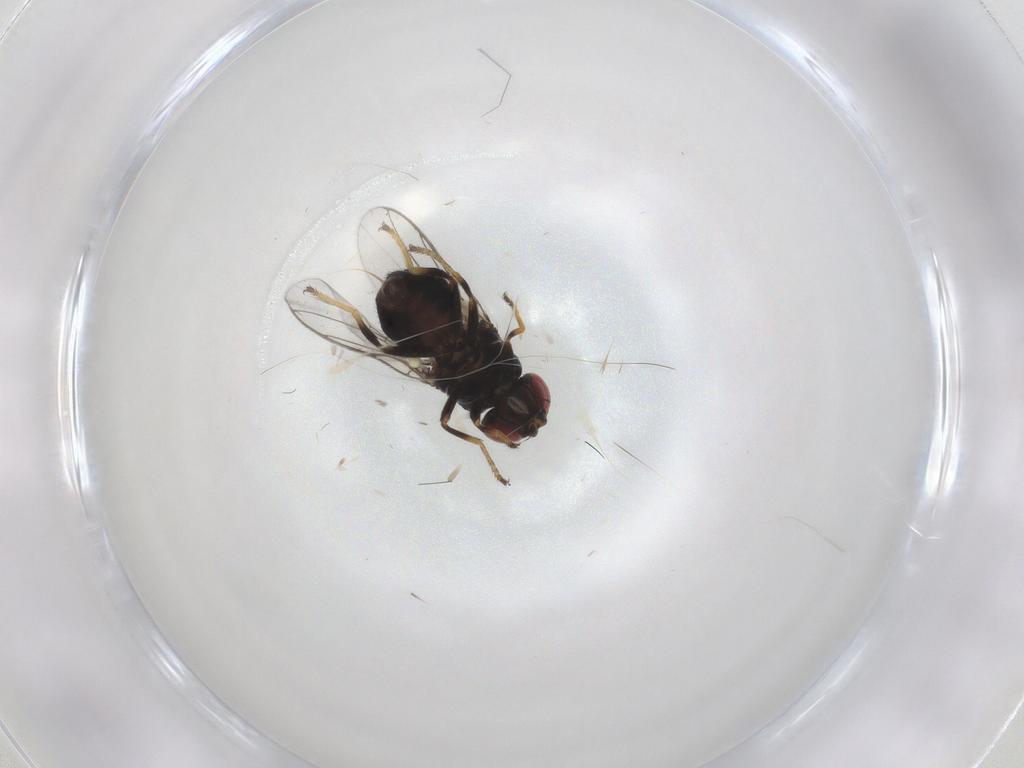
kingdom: Animalia
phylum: Arthropoda
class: Insecta
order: Diptera
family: Chloropidae
